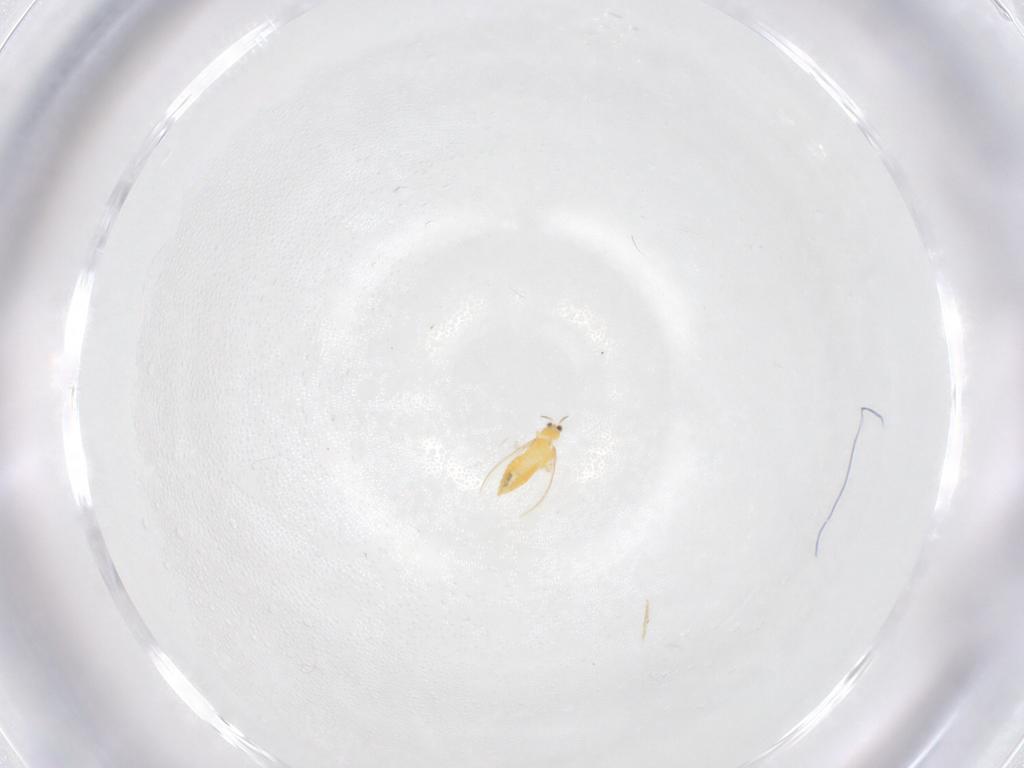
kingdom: Animalia
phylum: Arthropoda
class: Insecta
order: Thysanoptera
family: Thripidae
